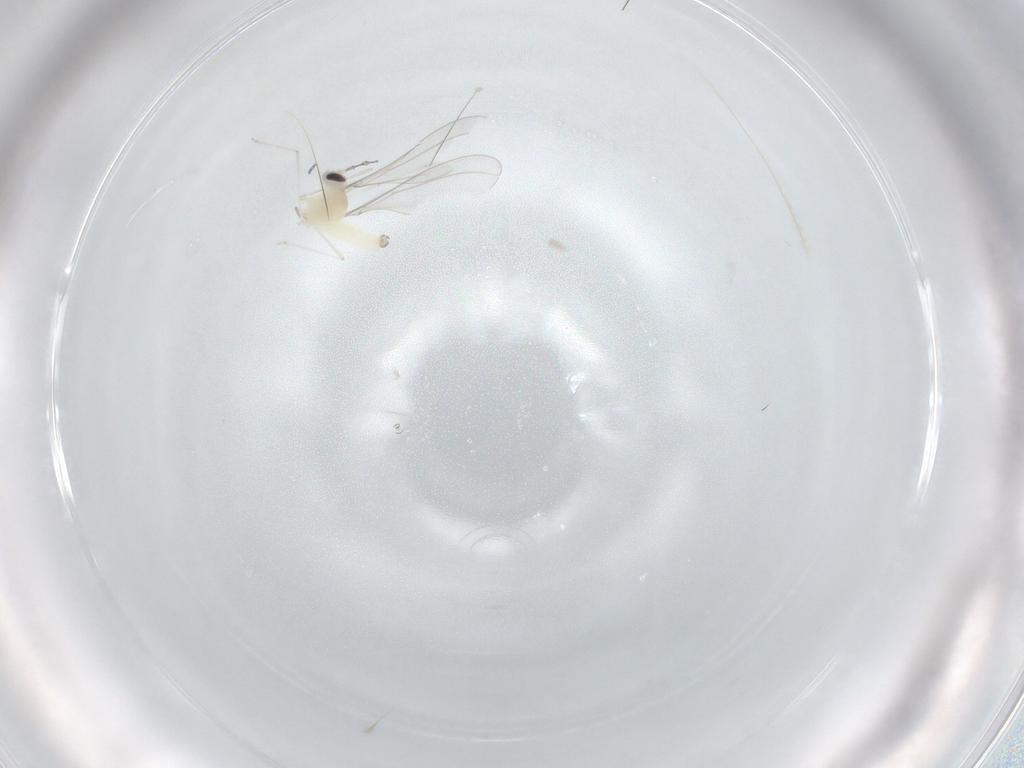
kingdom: Animalia
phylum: Arthropoda
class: Insecta
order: Diptera
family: Cecidomyiidae
